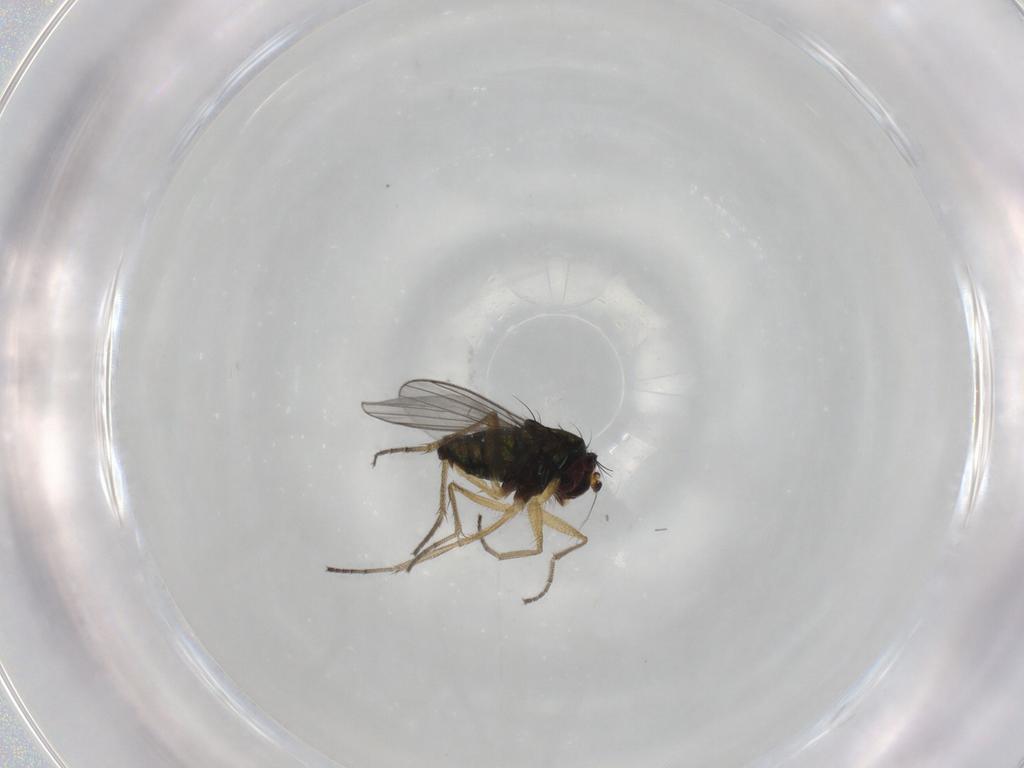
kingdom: Animalia
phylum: Arthropoda
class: Insecta
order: Diptera
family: Dolichopodidae
